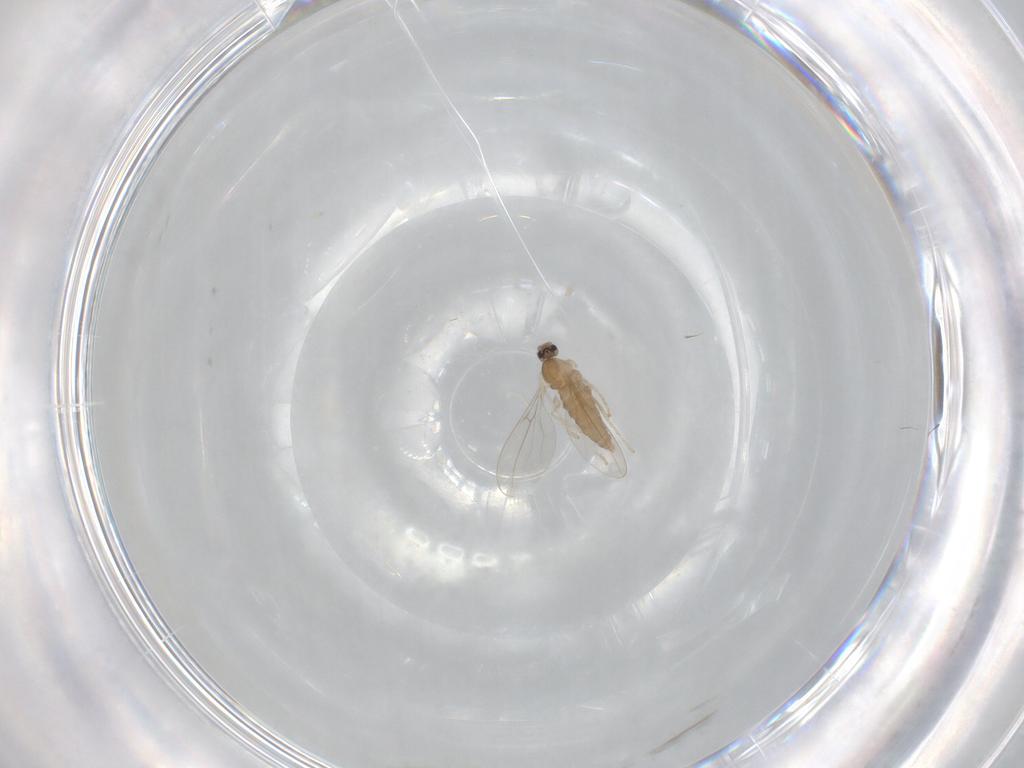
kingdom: Animalia
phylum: Arthropoda
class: Insecta
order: Diptera
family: Cecidomyiidae
